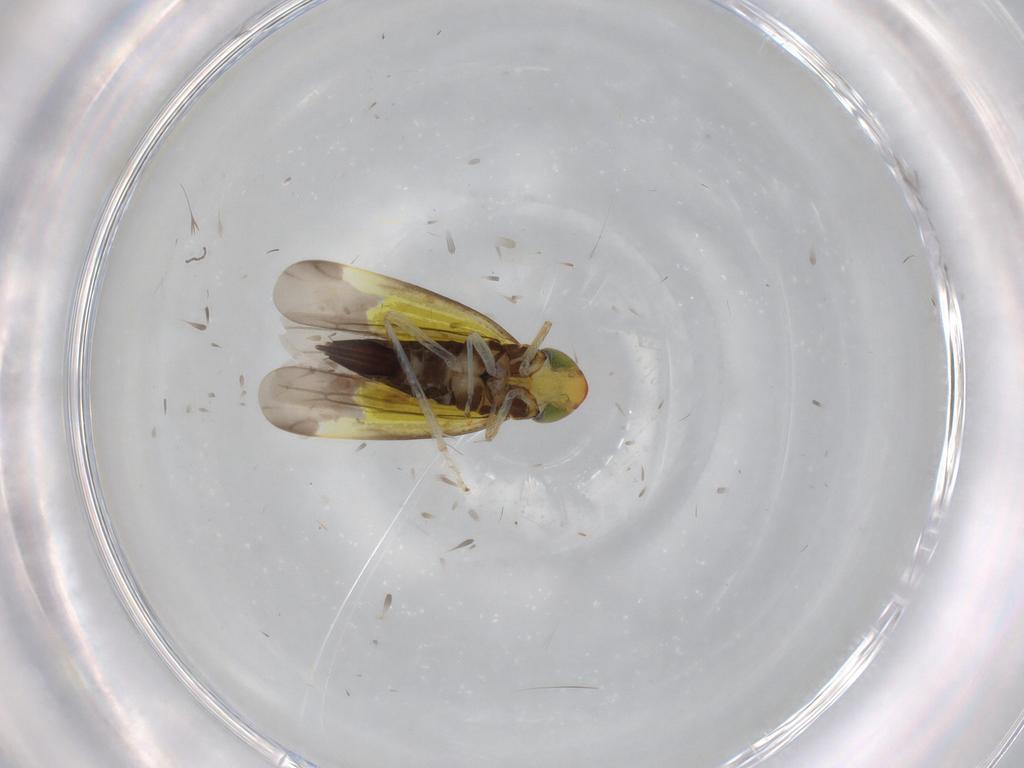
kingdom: Animalia
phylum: Arthropoda
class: Insecta
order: Hemiptera
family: Cicadellidae
